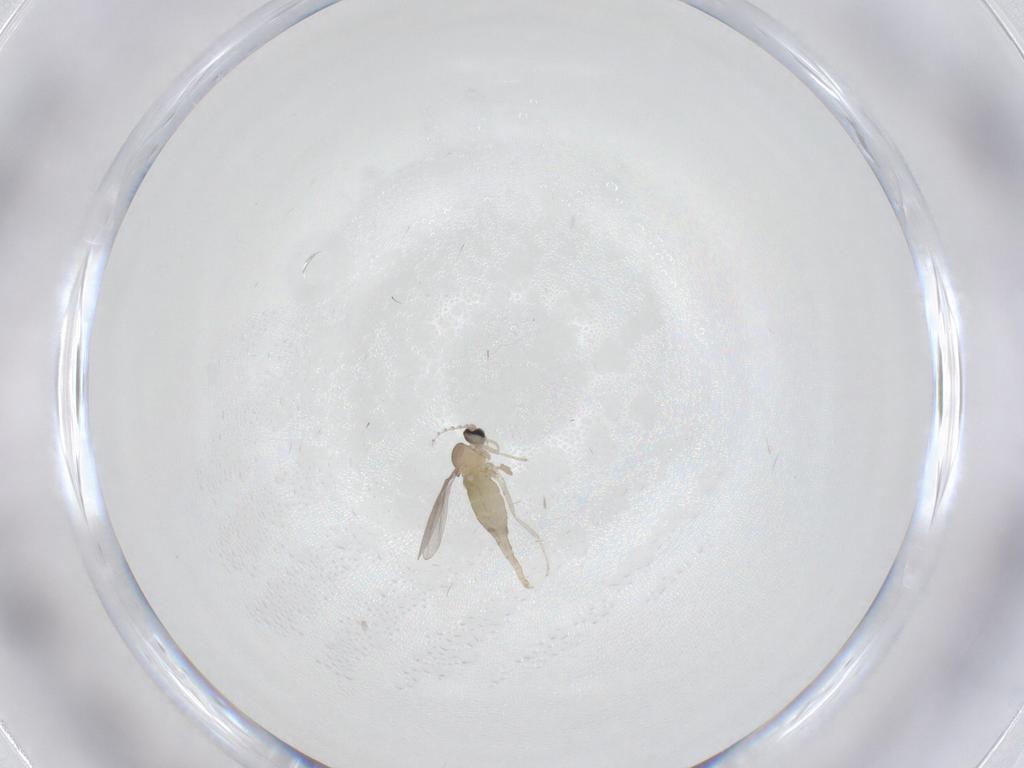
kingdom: Animalia
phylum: Arthropoda
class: Insecta
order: Diptera
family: Cecidomyiidae
